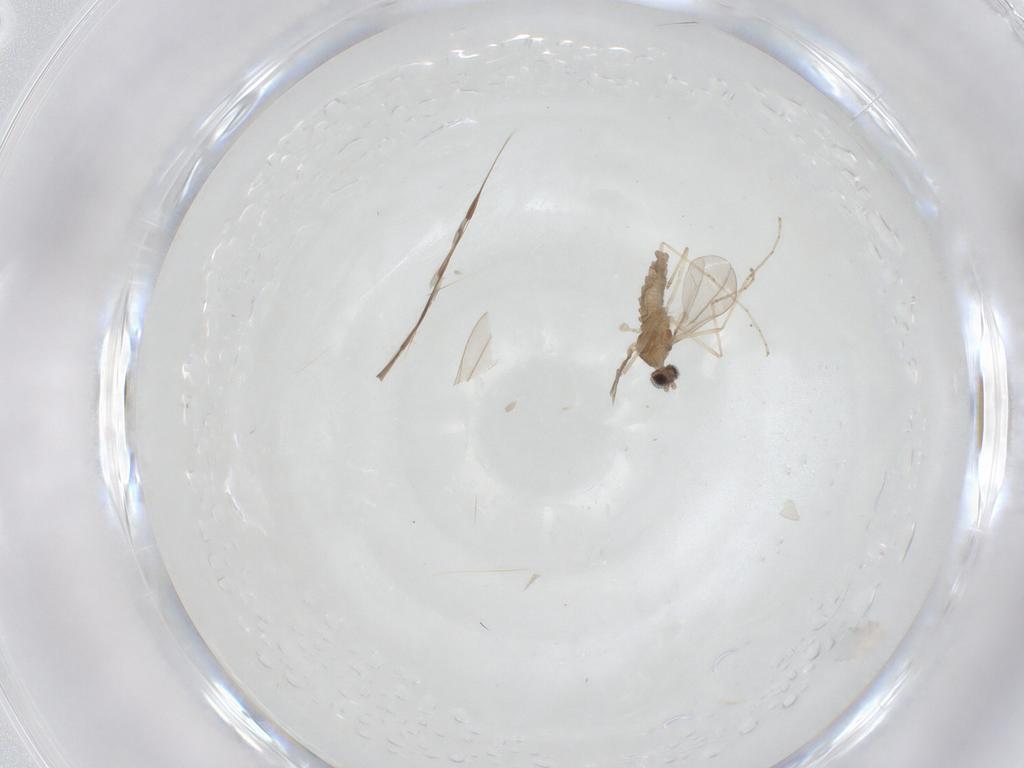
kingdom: Animalia
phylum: Arthropoda
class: Insecta
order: Diptera
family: Cecidomyiidae
